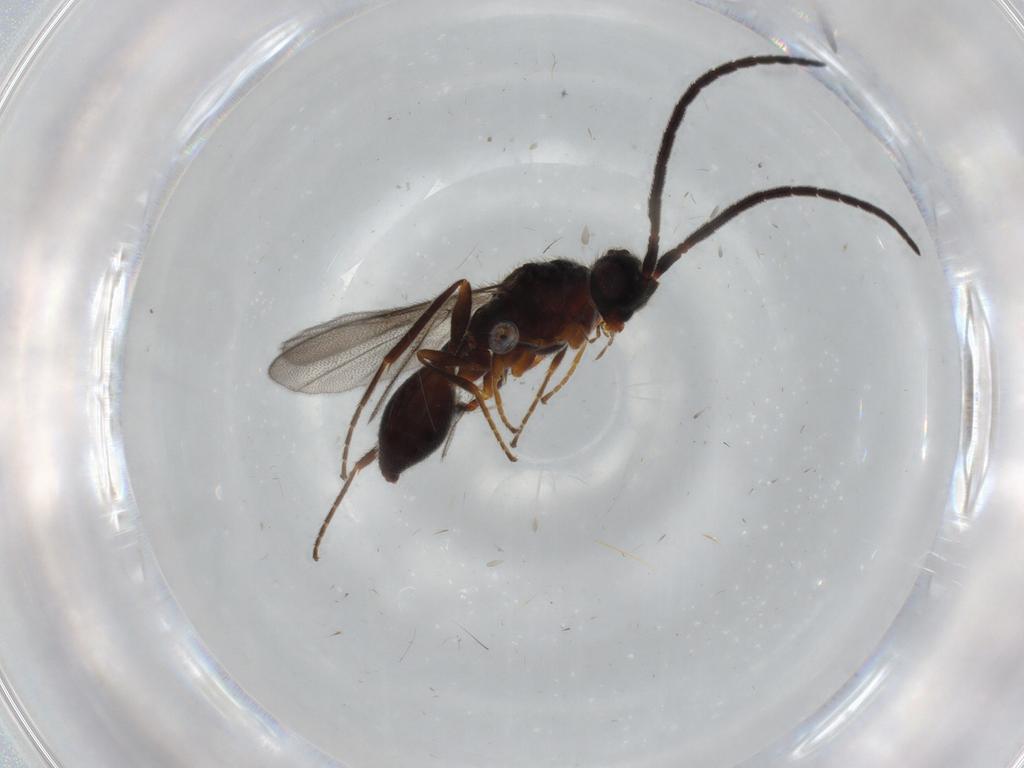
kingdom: Animalia
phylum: Arthropoda
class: Insecta
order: Hymenoptera
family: Diapriidae
